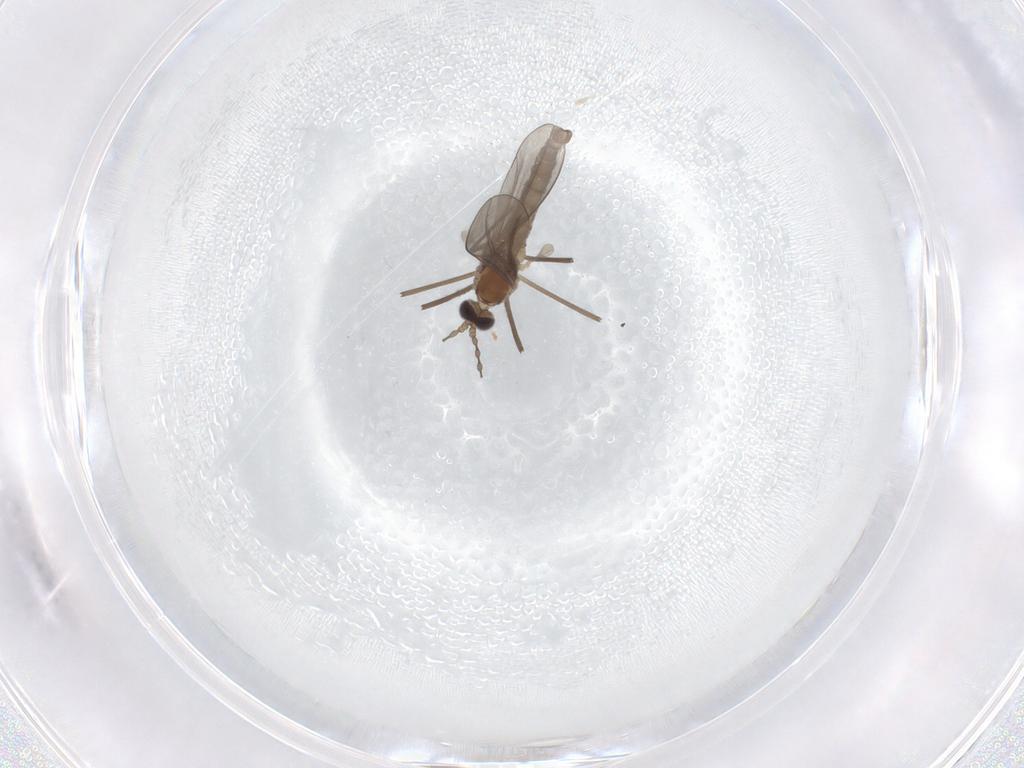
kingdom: Animalia
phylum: Arthropoda
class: Insecta
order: Diptera
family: Cecidomyiidae
